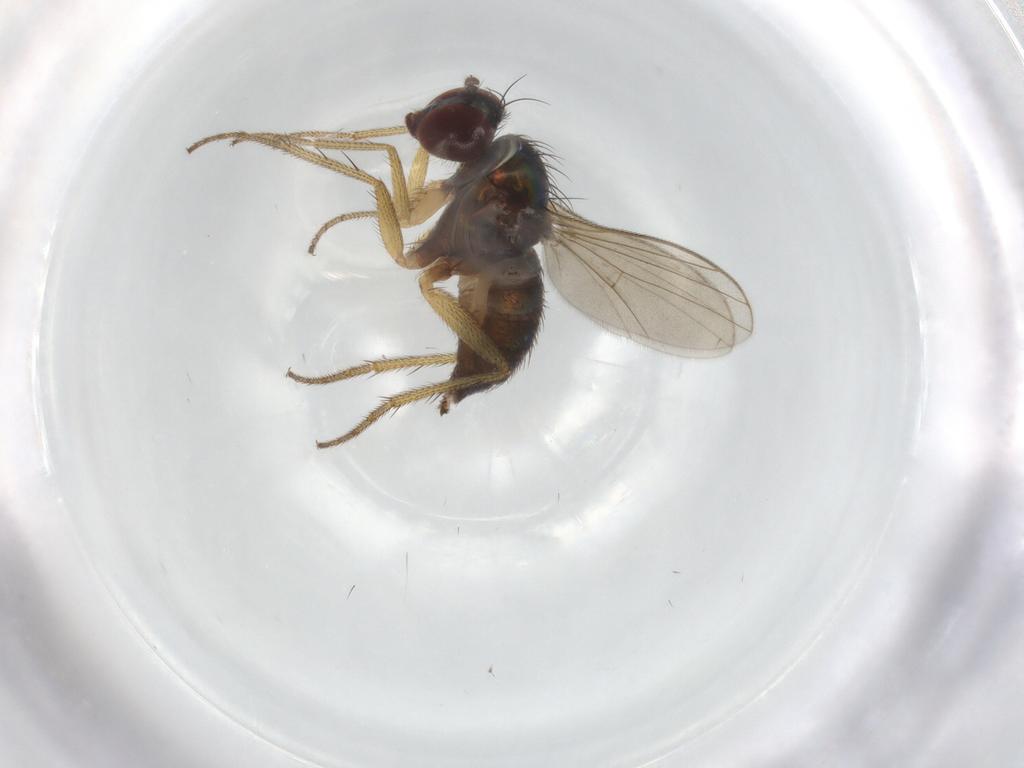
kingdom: Animalia
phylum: Arthropoda
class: Insecta
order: Diptera
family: Dolichopodidae
